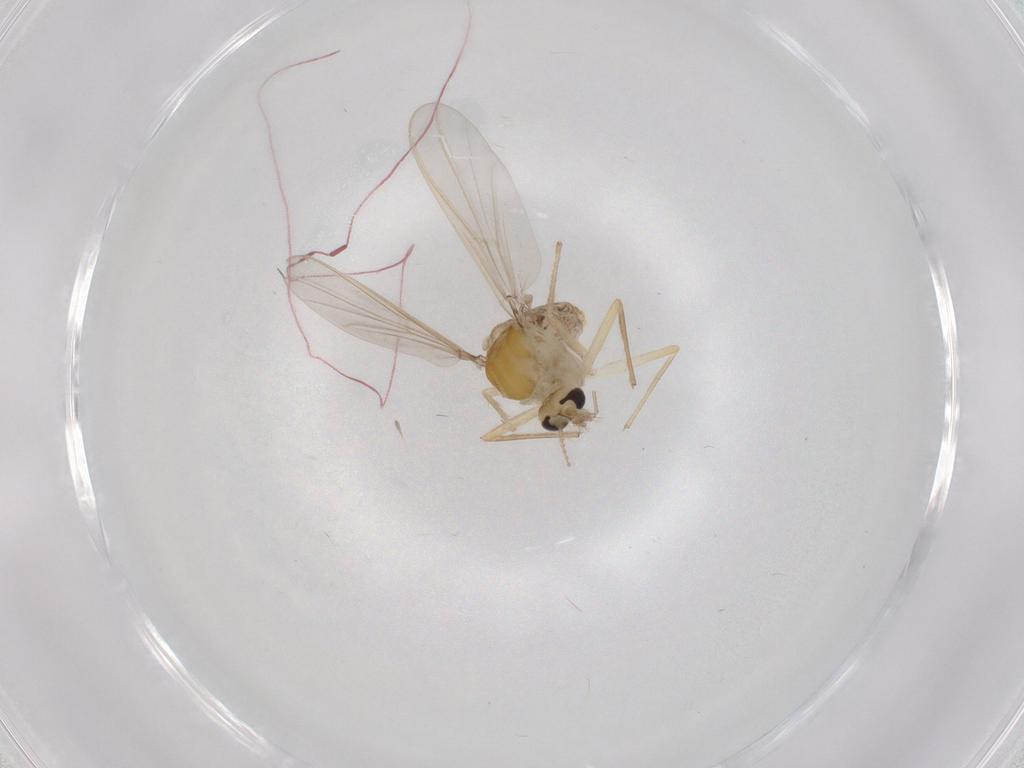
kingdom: Animalia
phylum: Arthropoda
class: Insecta
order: Diptera
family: Chironomidae
